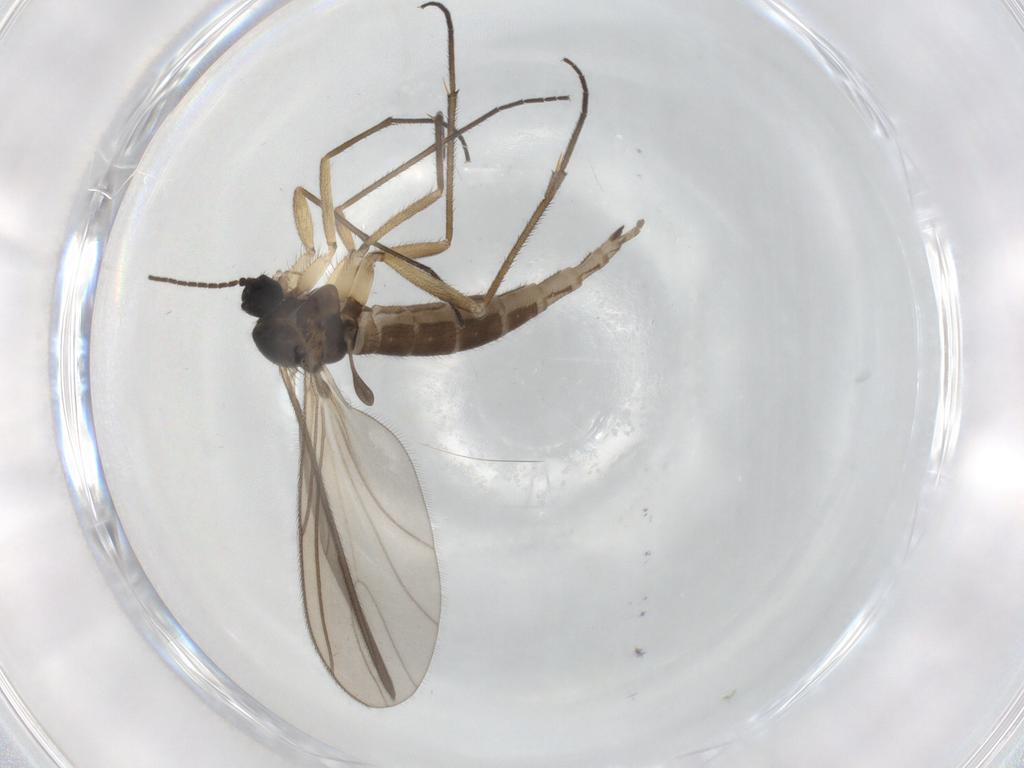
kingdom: Animalia
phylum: Arthropoda
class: Insecta
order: Diptera
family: Sciaridae
